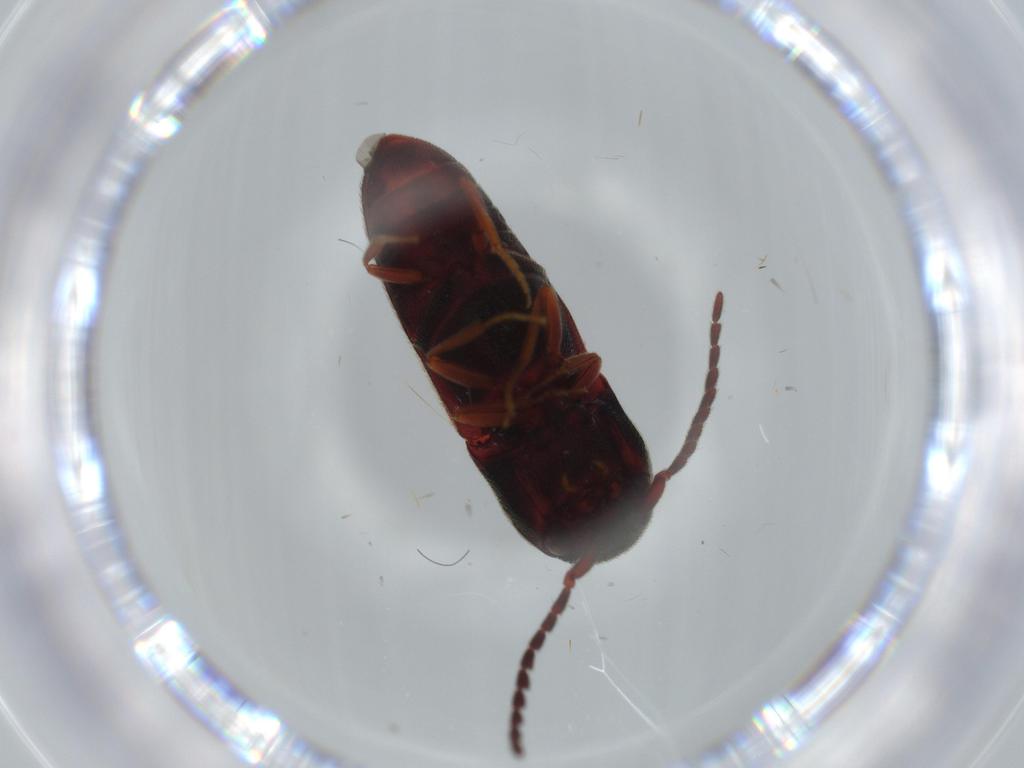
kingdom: Animalia
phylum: Arthropoda
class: Insecta
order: Coleoptera
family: Eucnemidae
